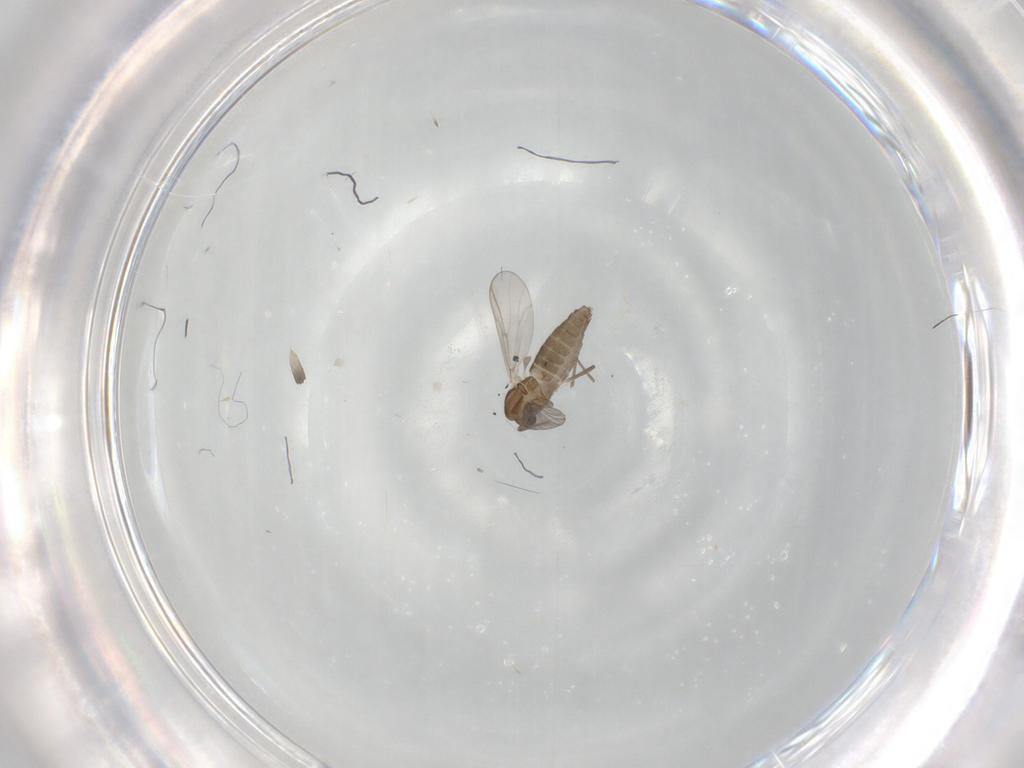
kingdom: Animalia
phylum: Arthropoda
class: Insecta
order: Diptera
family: Chironomidae
